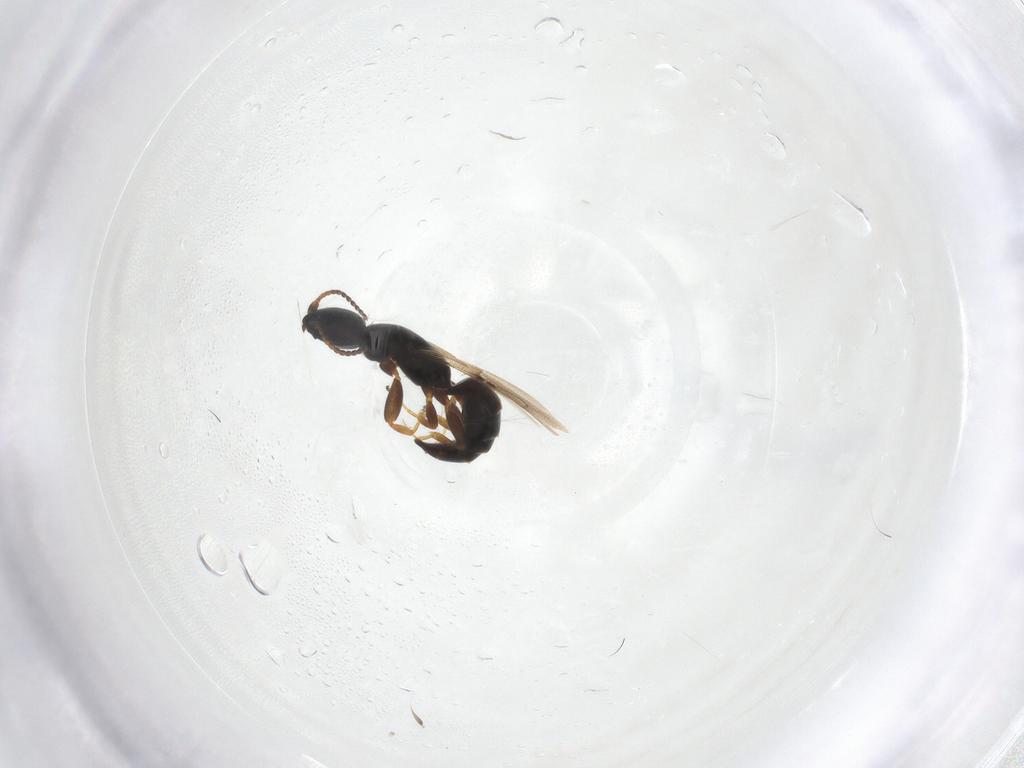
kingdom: Animalia
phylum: Arthropoda
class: Insecta
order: Hymenoptera
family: Bethylidae
